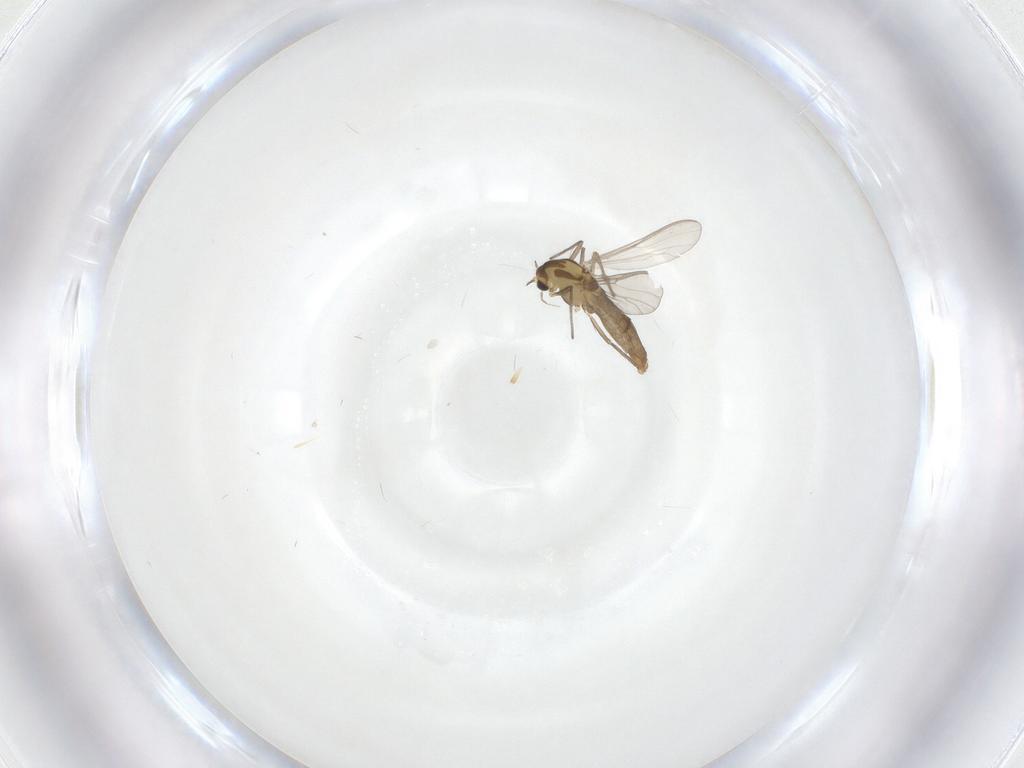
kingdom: Animalia
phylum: Arthropoda
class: Insecta
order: Diptera
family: Chironomidae
